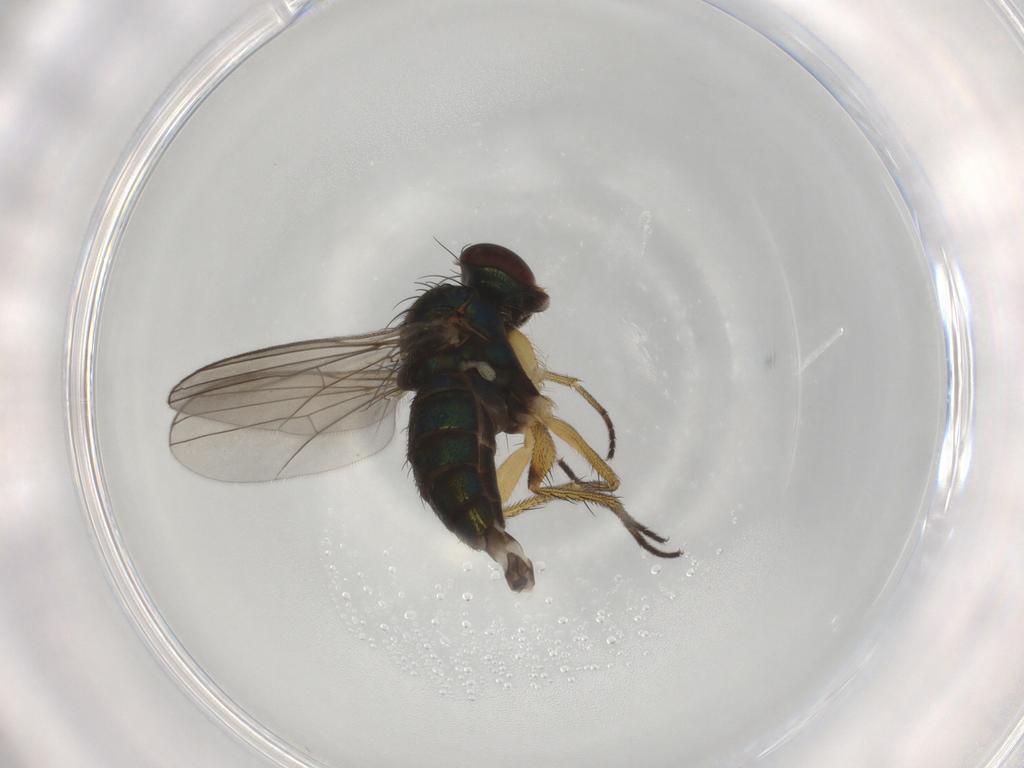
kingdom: Animalia
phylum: Arthropoda
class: Insecta
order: Diptera
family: Dolichopodidae
